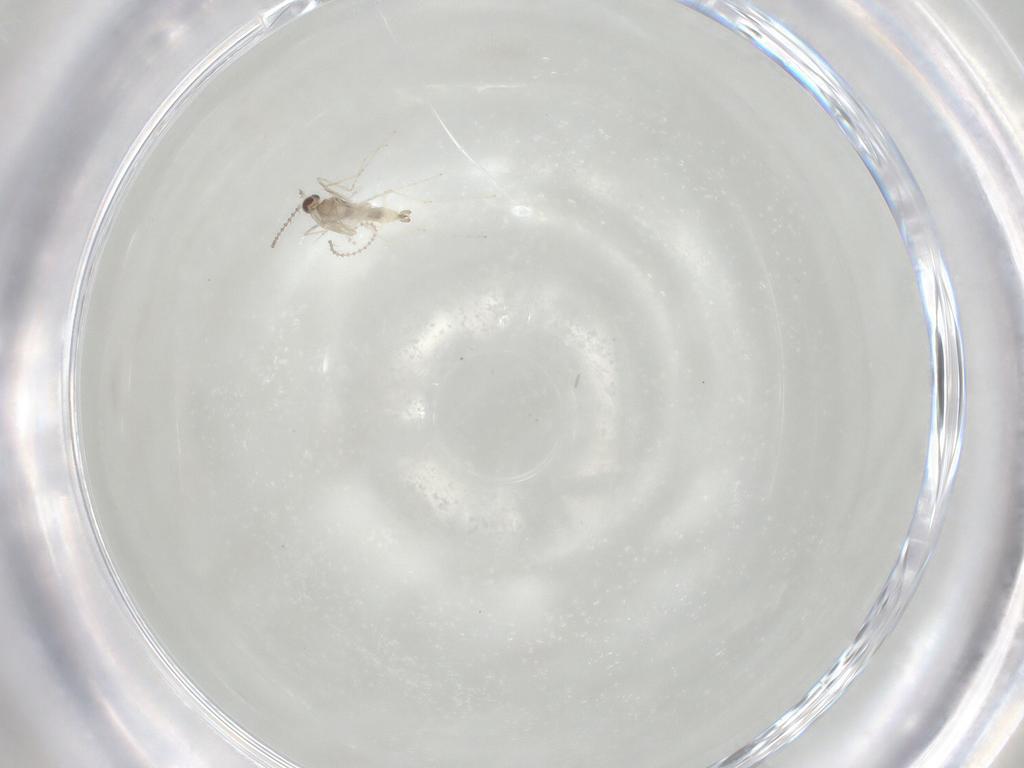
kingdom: Animalia
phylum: Arthropoda
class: Insecta
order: Diptera
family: Cecidomyiidae
